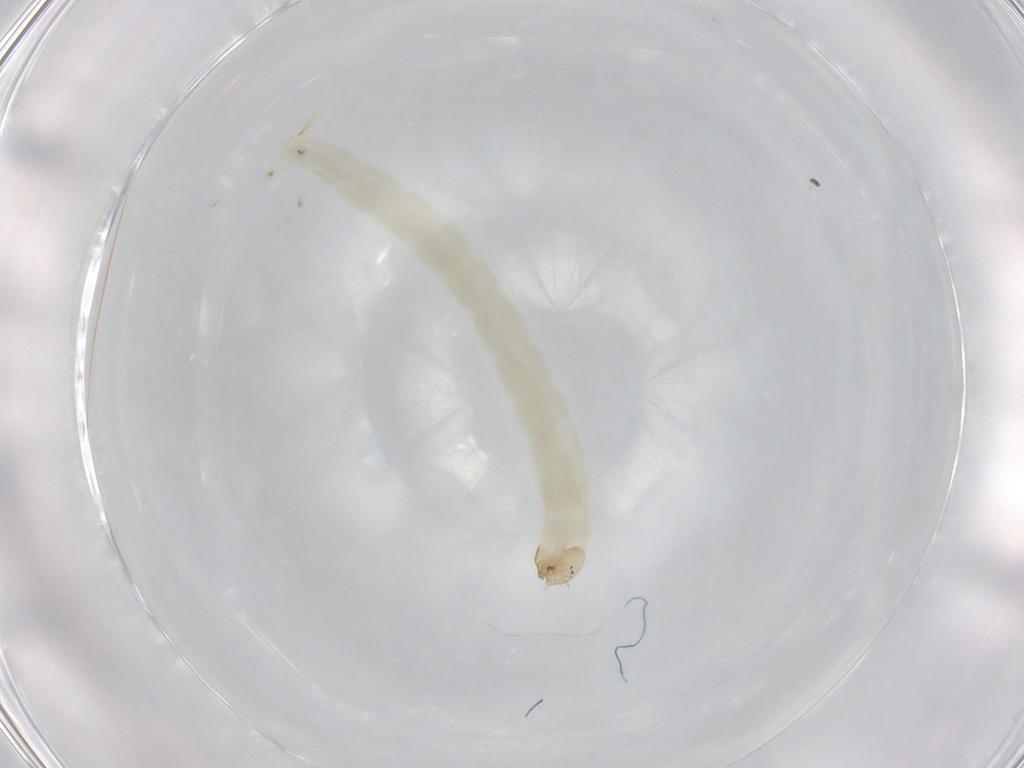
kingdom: Animalia
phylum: Arthropoda
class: Insecta
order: Diptera
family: Chironomidae
